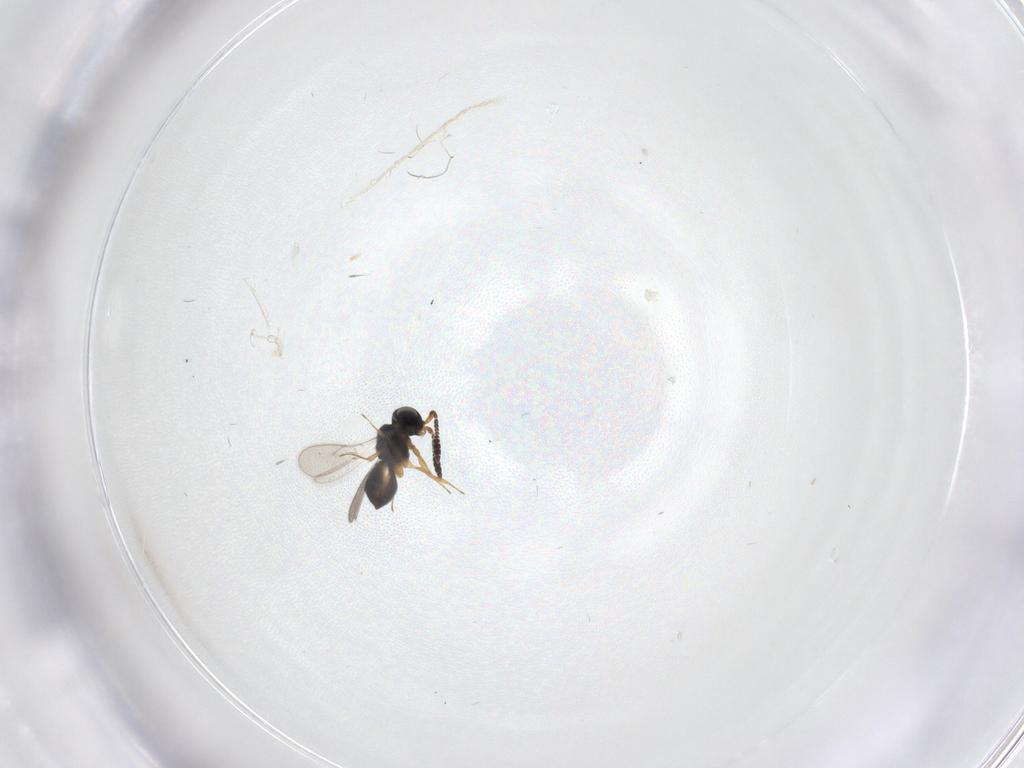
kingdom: Animalia
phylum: Arthropoda
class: Insecta
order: Hymenoptera
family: Scelionidae
